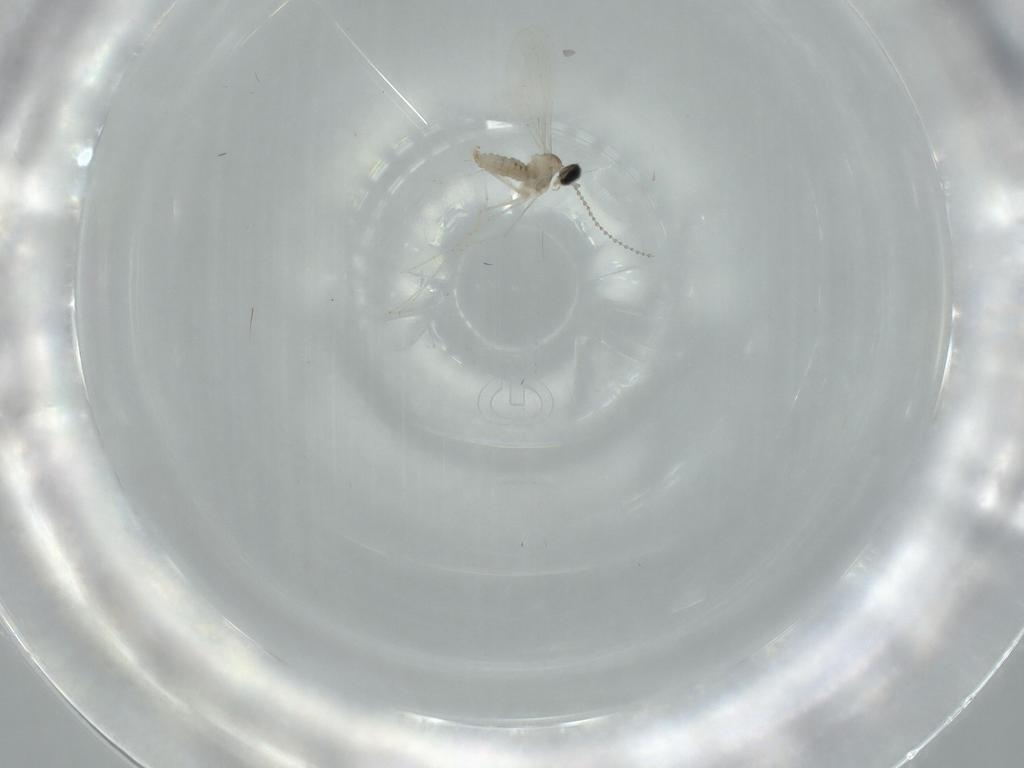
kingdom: Animalia
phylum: Arthropoda
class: Insecta
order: Diptera
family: Cecidomyiidae
